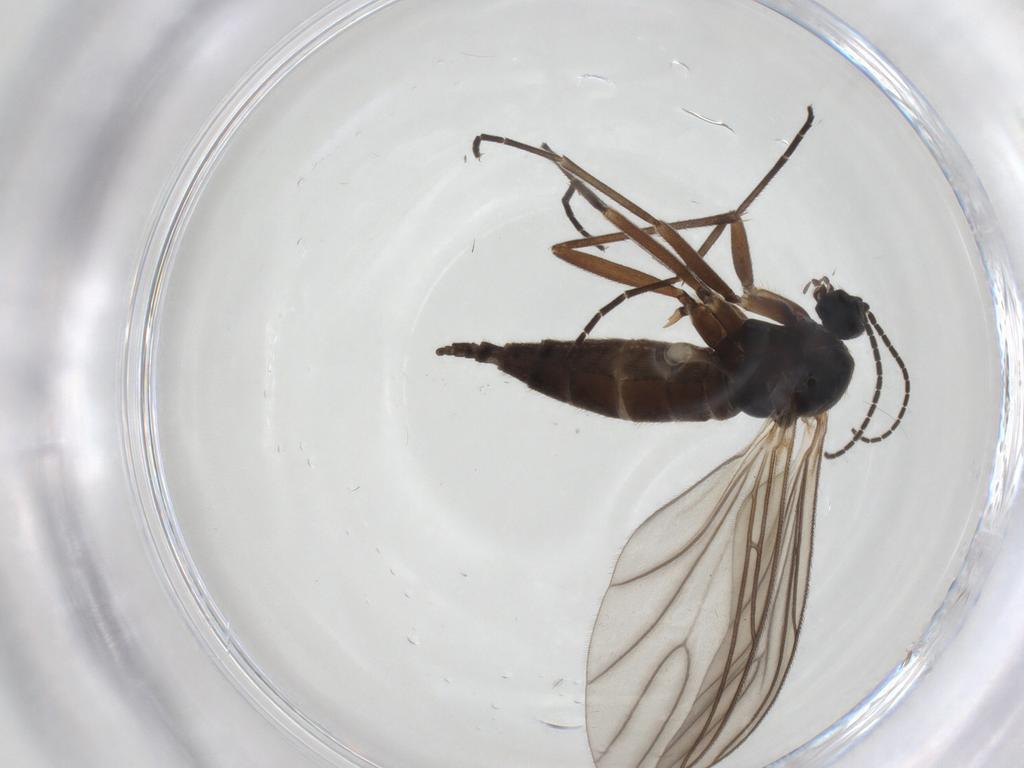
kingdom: Animalia
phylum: Arthropoda
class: Insecta
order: Diptera
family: Sciaridae
